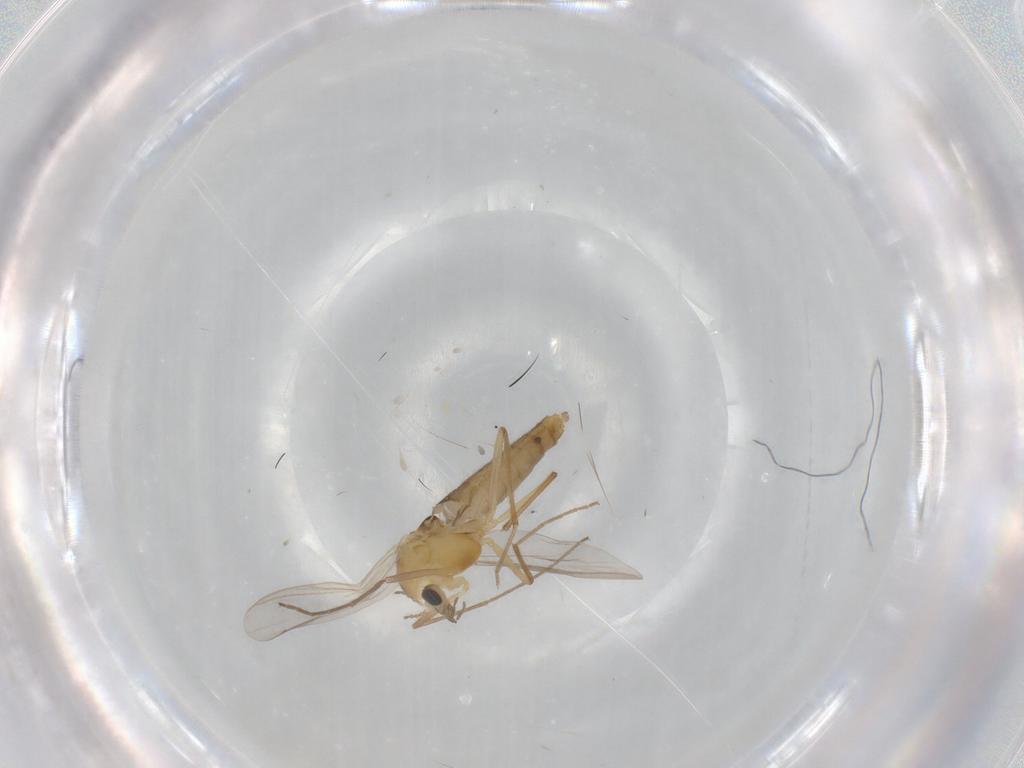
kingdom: Animalia
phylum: Arthropoda
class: Insecta
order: Diptera
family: Chironomidae
